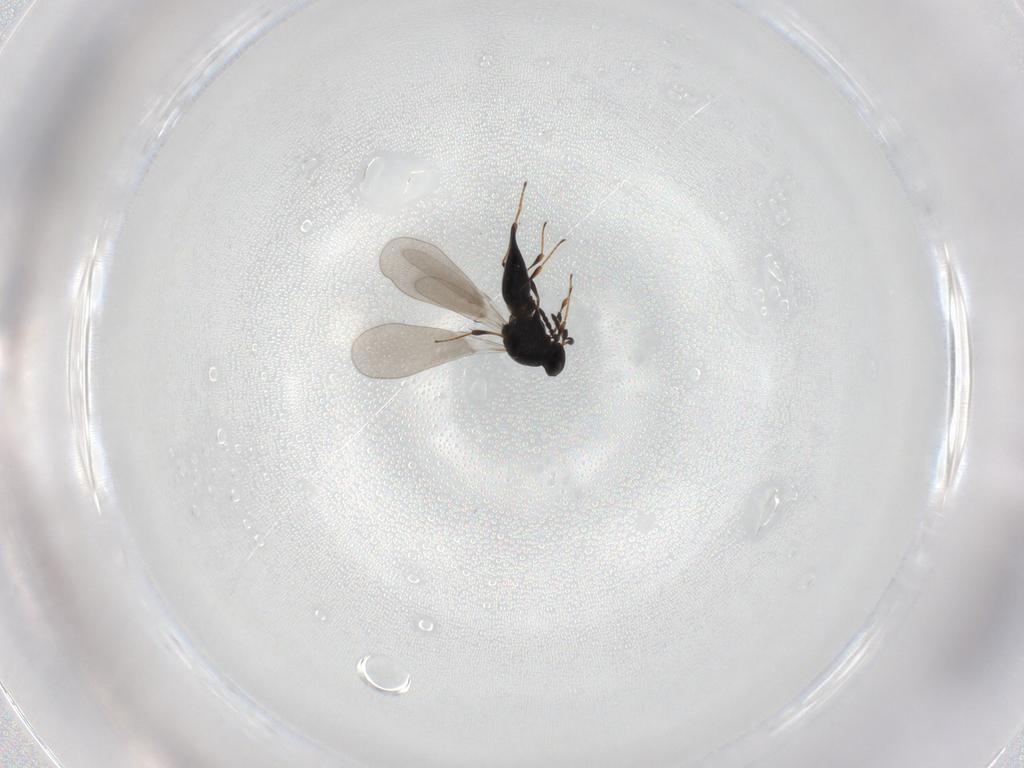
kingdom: Animalia
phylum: Arthropoda
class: Insecta
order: Hymenoptera
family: Platygastridae
